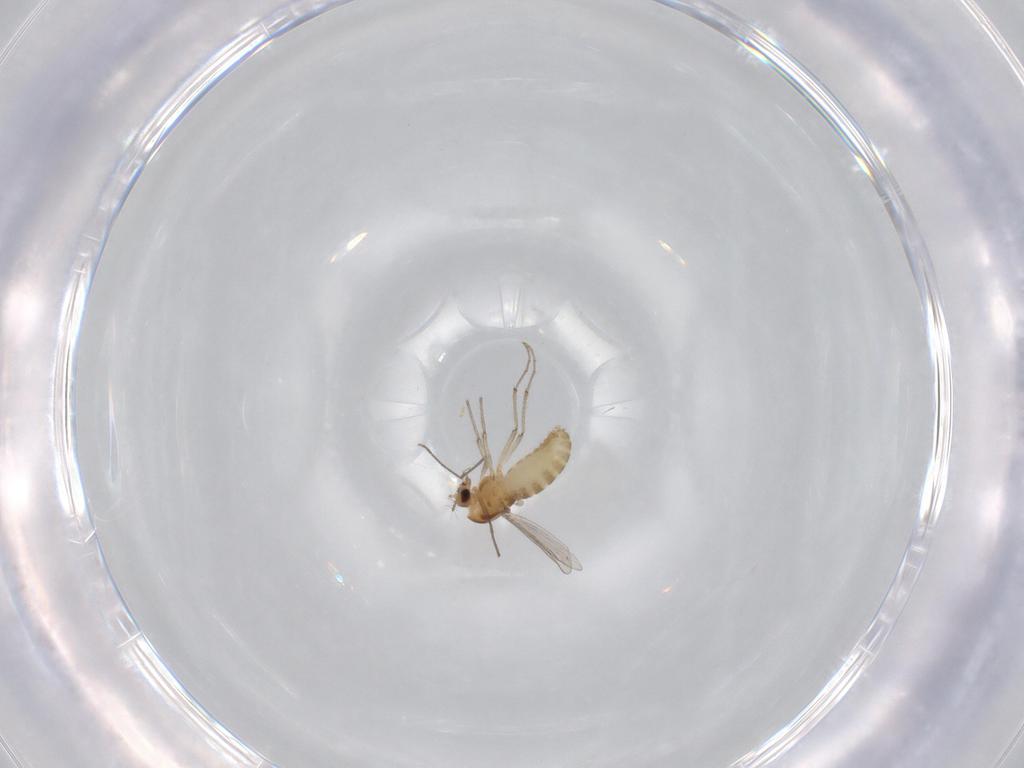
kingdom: Animalia
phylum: Arthropoda
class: Insecta
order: Diptera
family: Chironomidae
